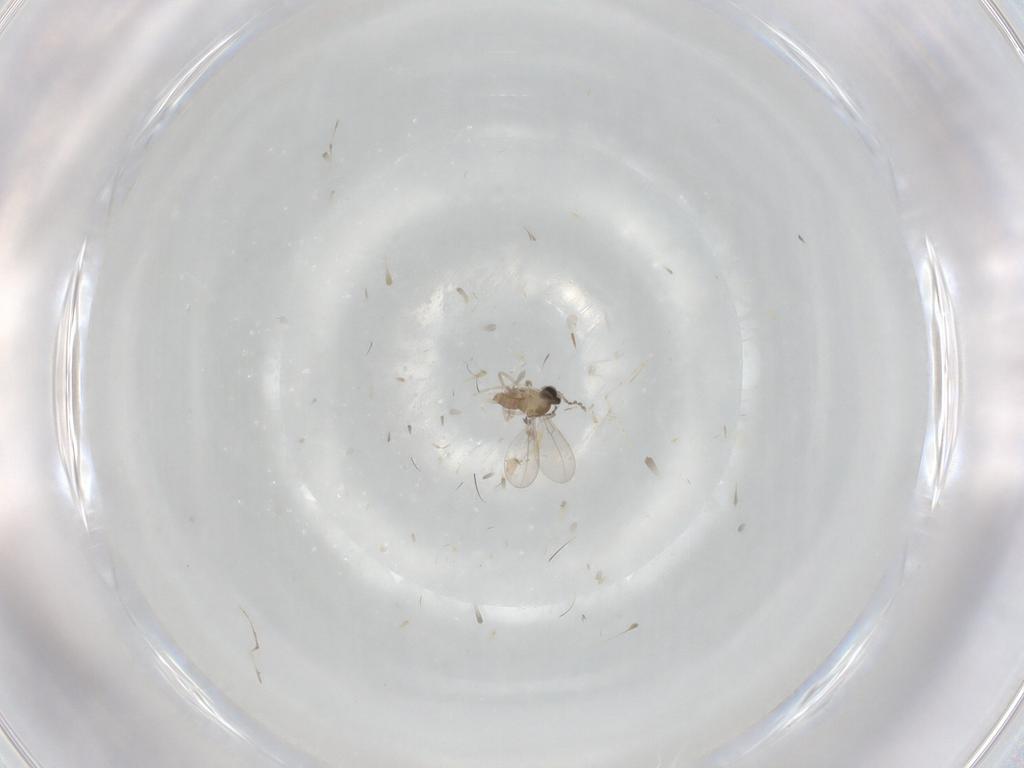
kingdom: Animalia
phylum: Arthropoda
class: Insecta
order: Diptera
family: Cecidomyiidae
